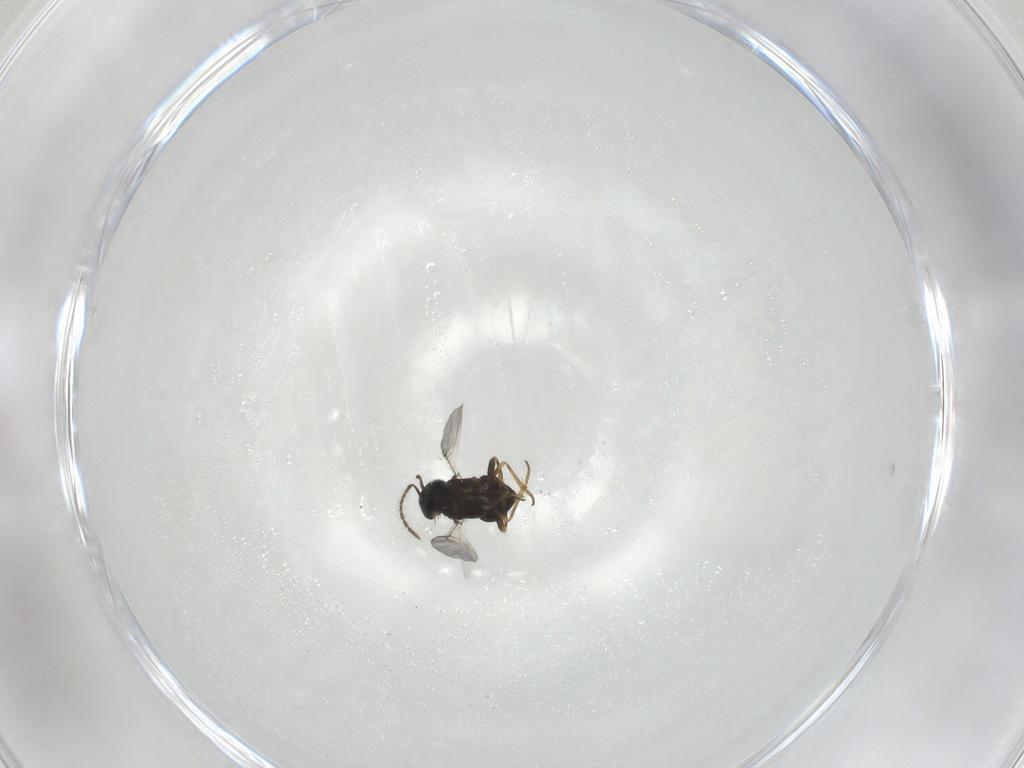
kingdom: Animalia
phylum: Arthropoda
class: Insecta
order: Hymenoptera
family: Encyrtidae
